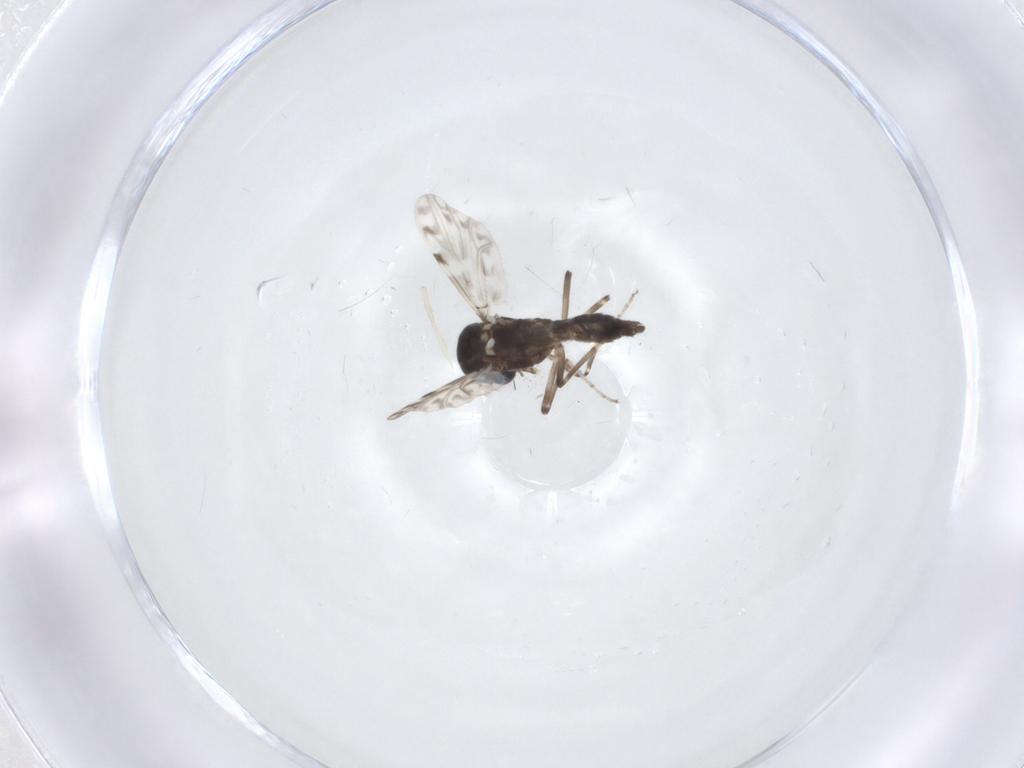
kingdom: Animalia
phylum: Arthropoda
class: Insecta
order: Diptera
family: Ceratopogonidae
